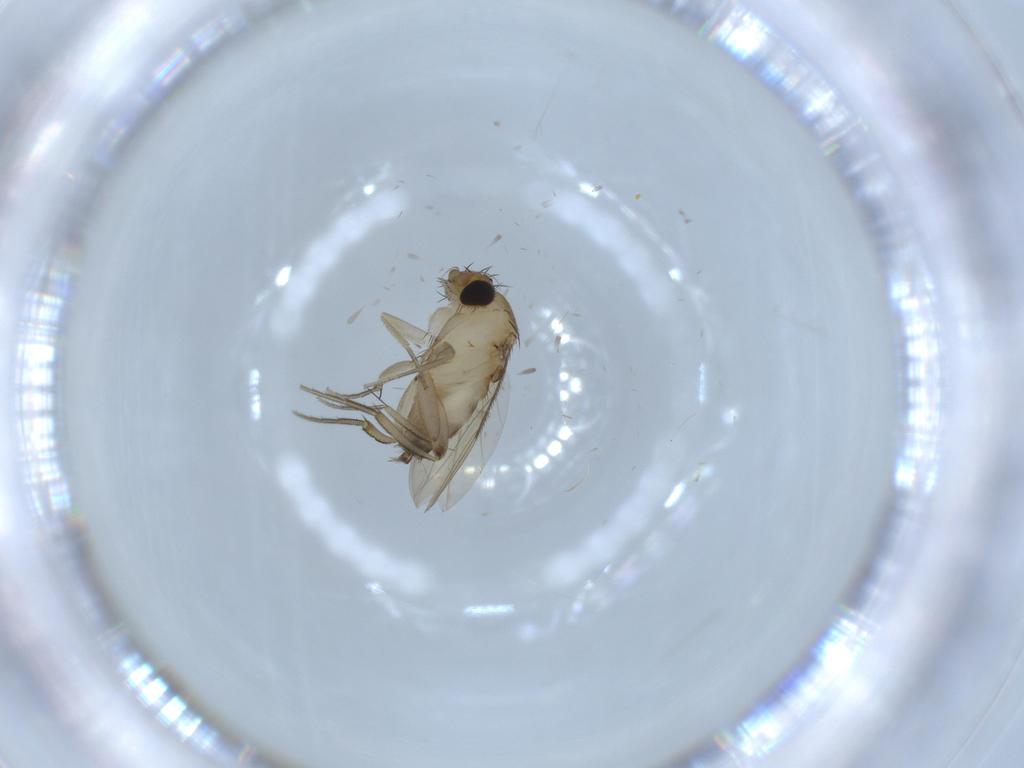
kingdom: Animalia
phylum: Arthropoda
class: Insecta
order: Diptera
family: Phoridae
